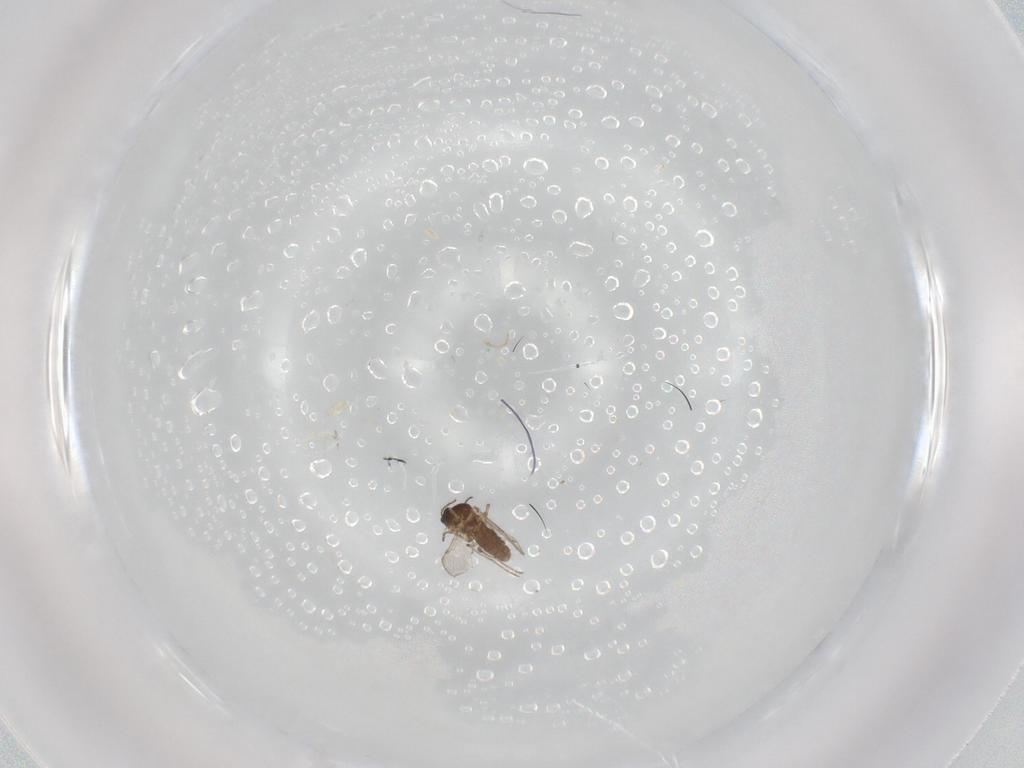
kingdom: Animalia
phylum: Arthropoda
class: Insecta
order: Diptera
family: Ceratopogonidae
